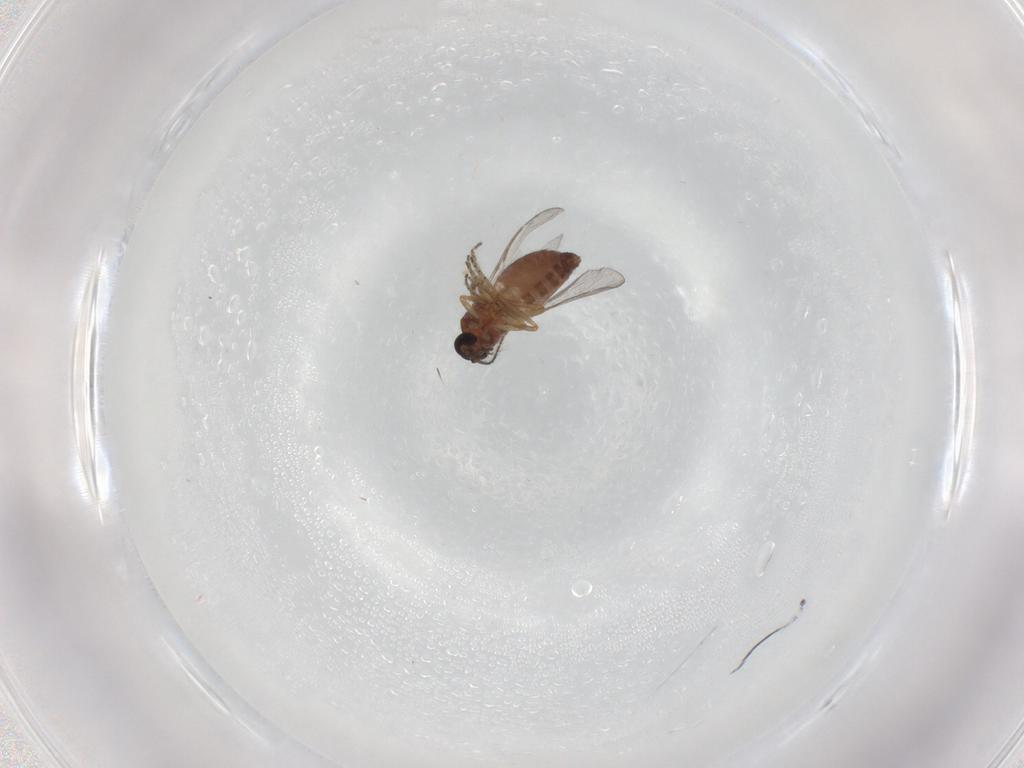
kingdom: Animalia
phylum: Arthropoda
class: Insecta
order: Diptera
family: Ceratopogonidae
